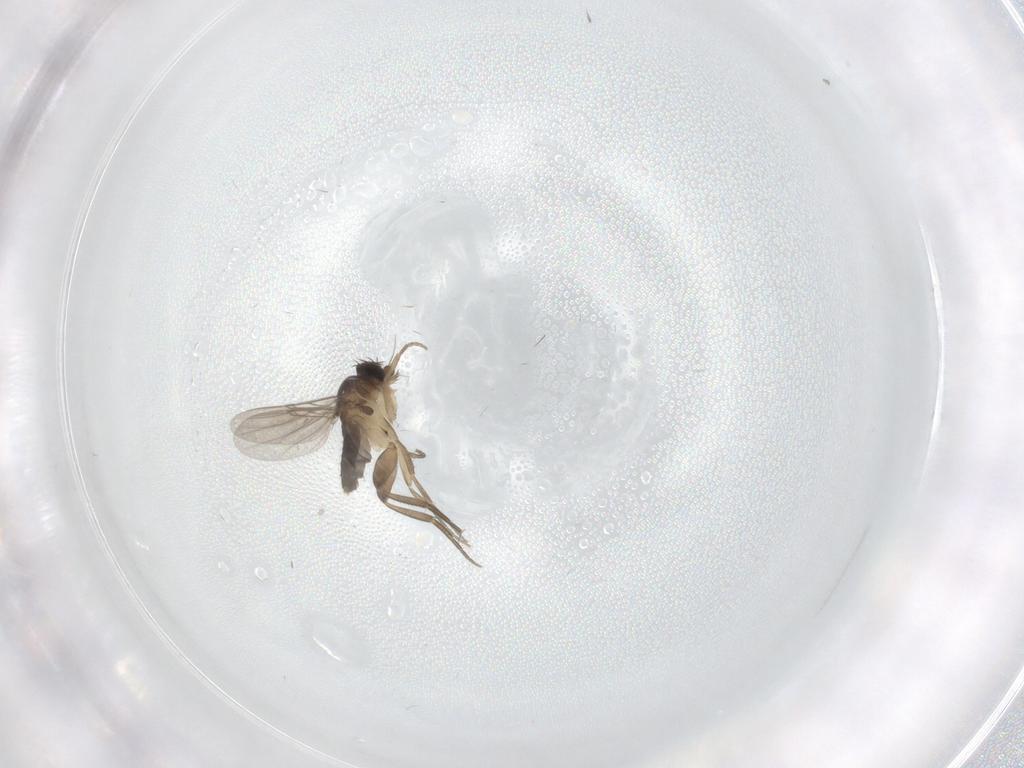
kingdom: Animalia
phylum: Arthropoda
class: Insecta
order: Diptera
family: Phoridae
